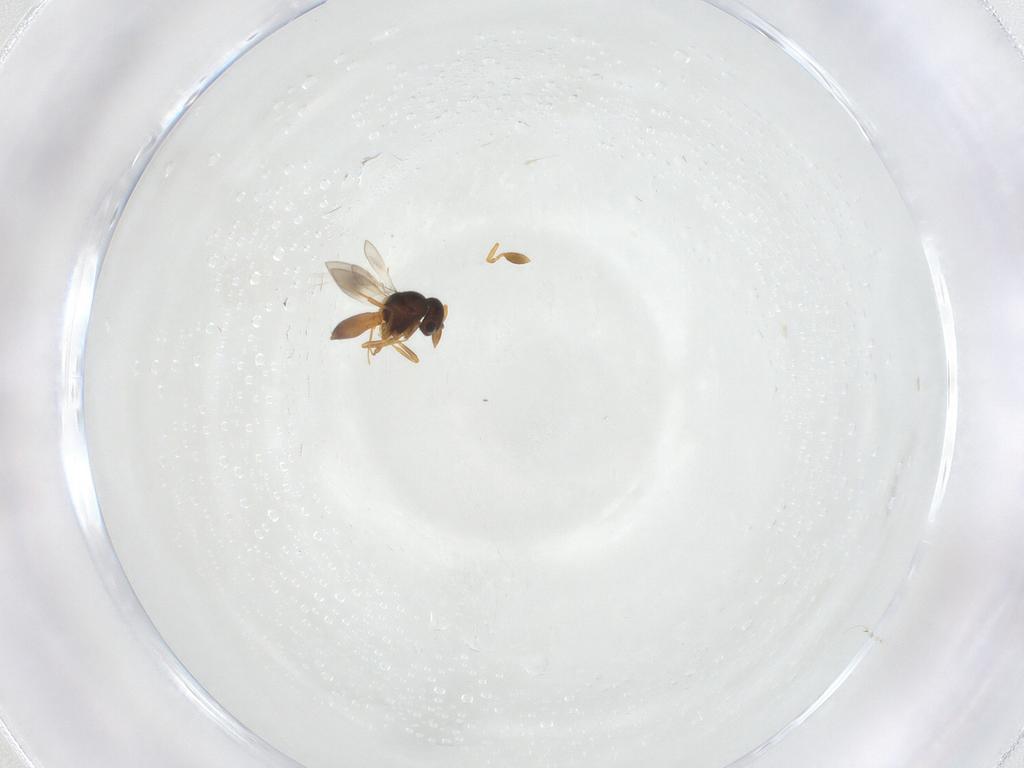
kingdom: Animalia
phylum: Arthropoda
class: Insecta
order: Hymenoptera
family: Scelionidae
